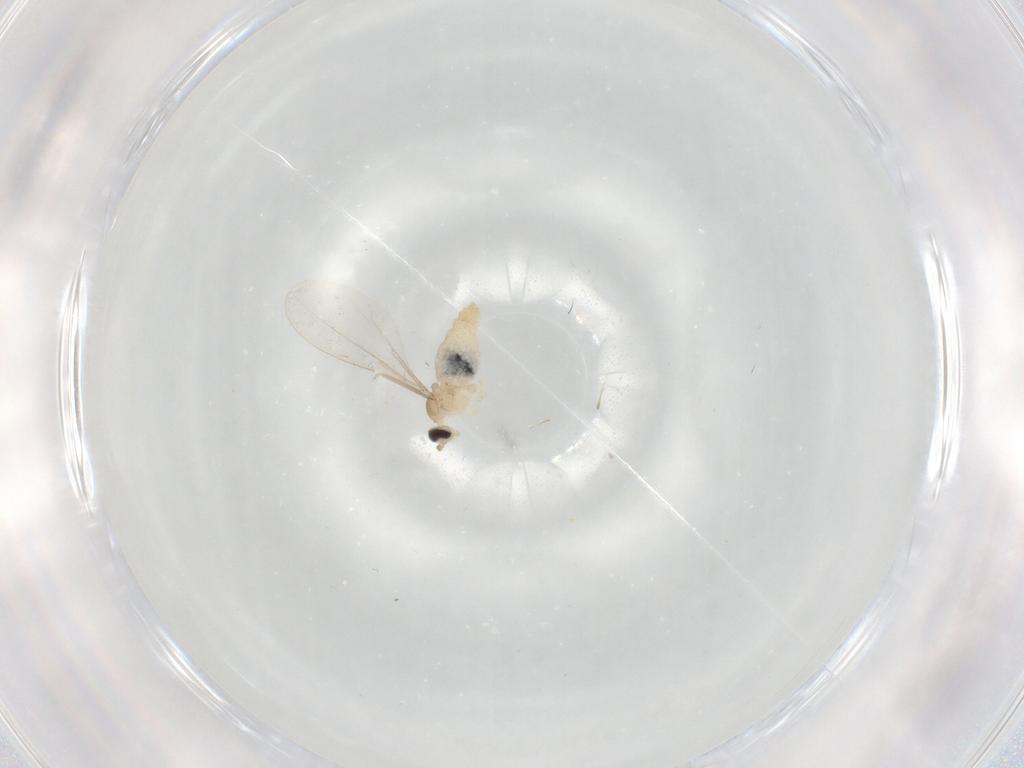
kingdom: Animalia
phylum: Arthropoda
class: Insecta
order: Diptera
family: Cecidomyiidae
